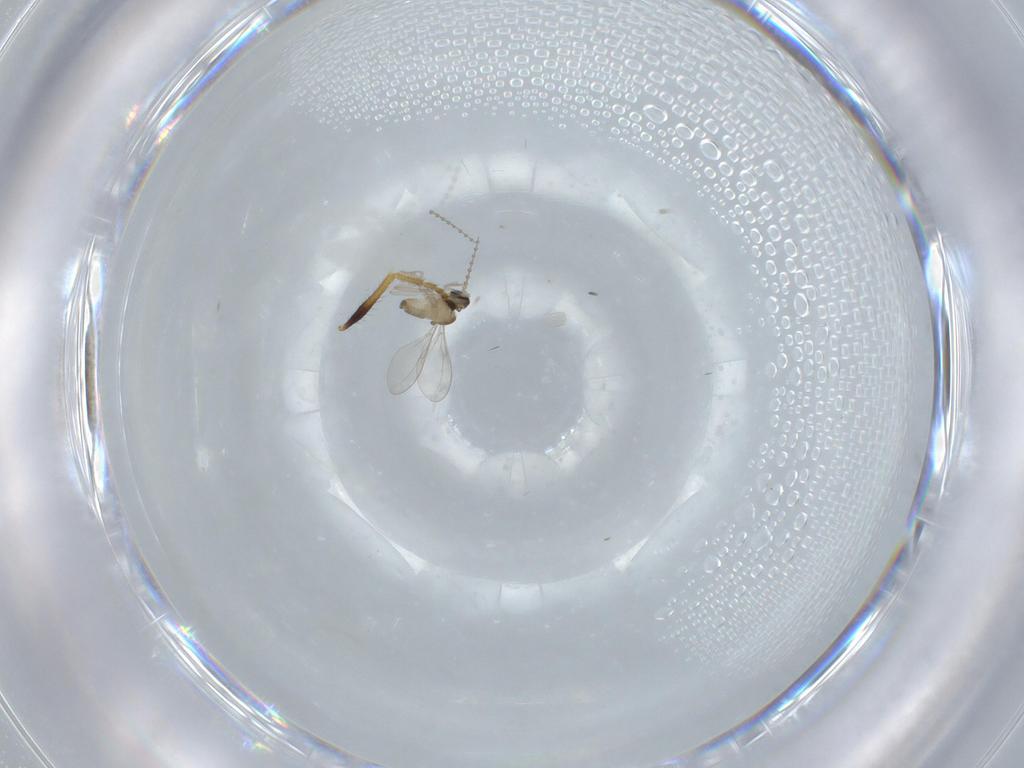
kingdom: Animalia
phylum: Arthropoda
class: Insecta
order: Diptera
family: Cecidomyiidae
